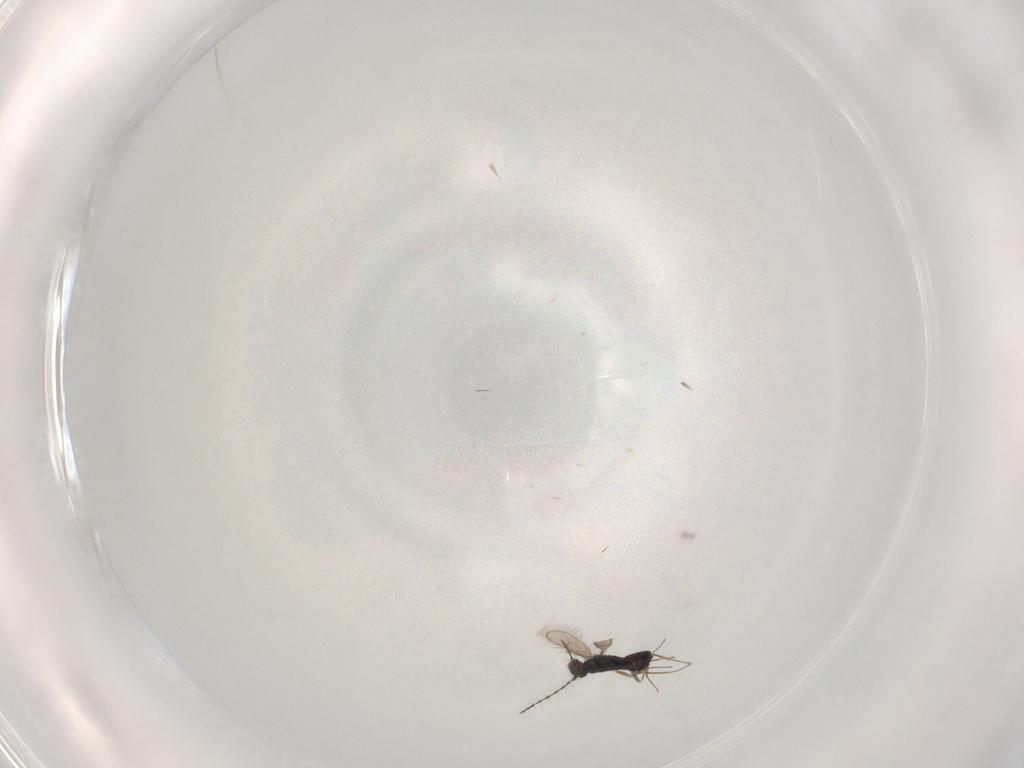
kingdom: Animalia
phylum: Arthropoda
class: Insecta
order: Hymenoptera
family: Pteromalidae
